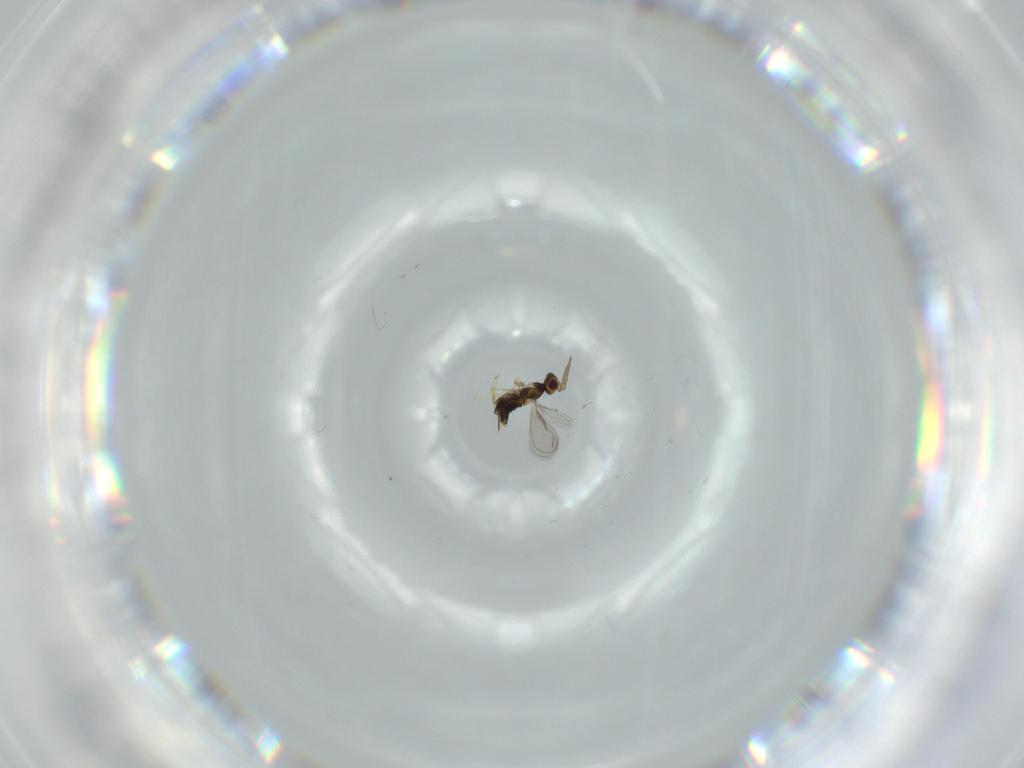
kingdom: Animalia
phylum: Arthropoda
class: Insecta
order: Hymenoptera
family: Aphelinidae
